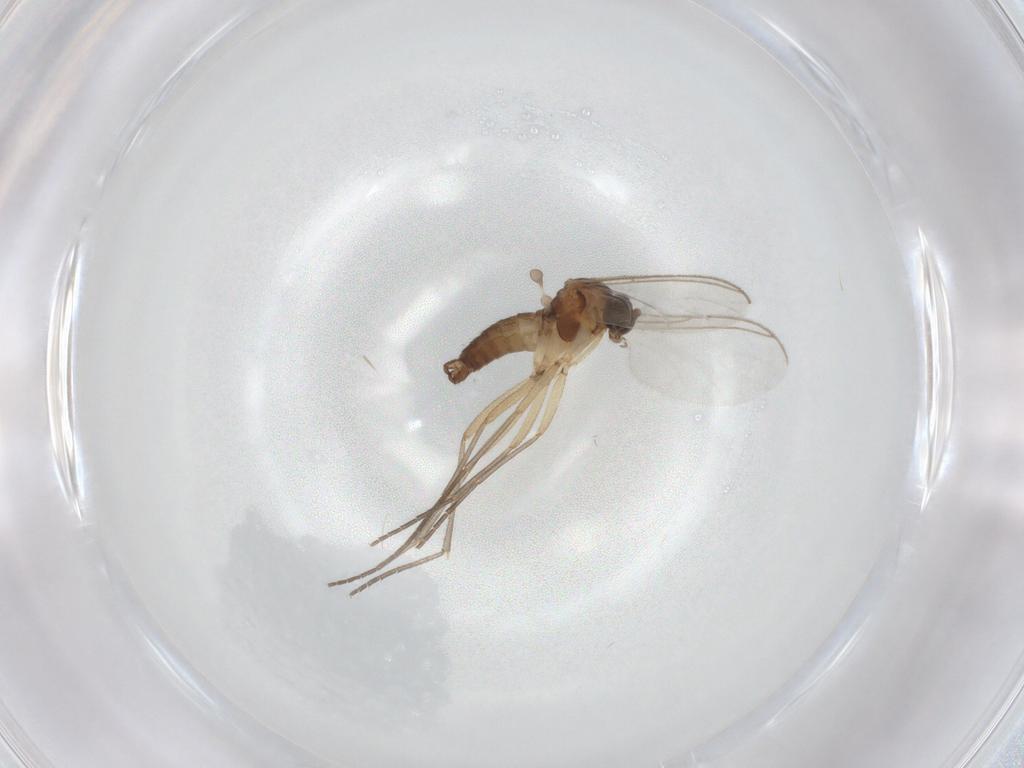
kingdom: Animalia
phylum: Arthropoda
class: Insecta
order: Diptera
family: Sciaridae
